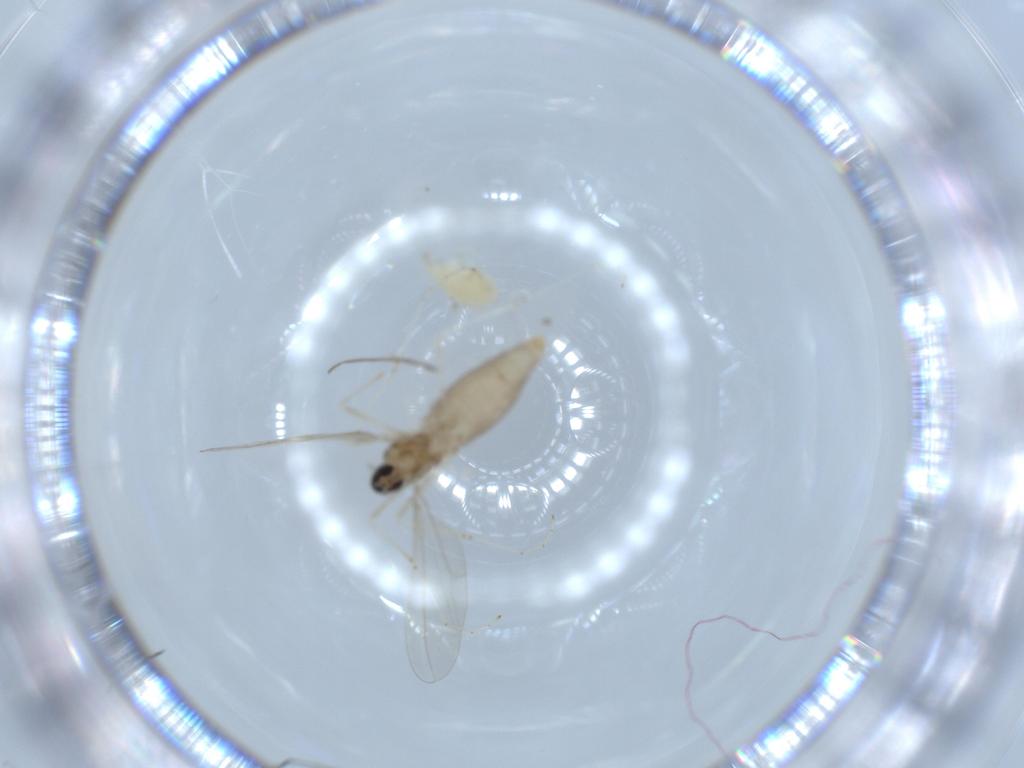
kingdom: Animalia
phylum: Arthropoda
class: Arachnida
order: Trombidiformes
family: Erythraeidae
